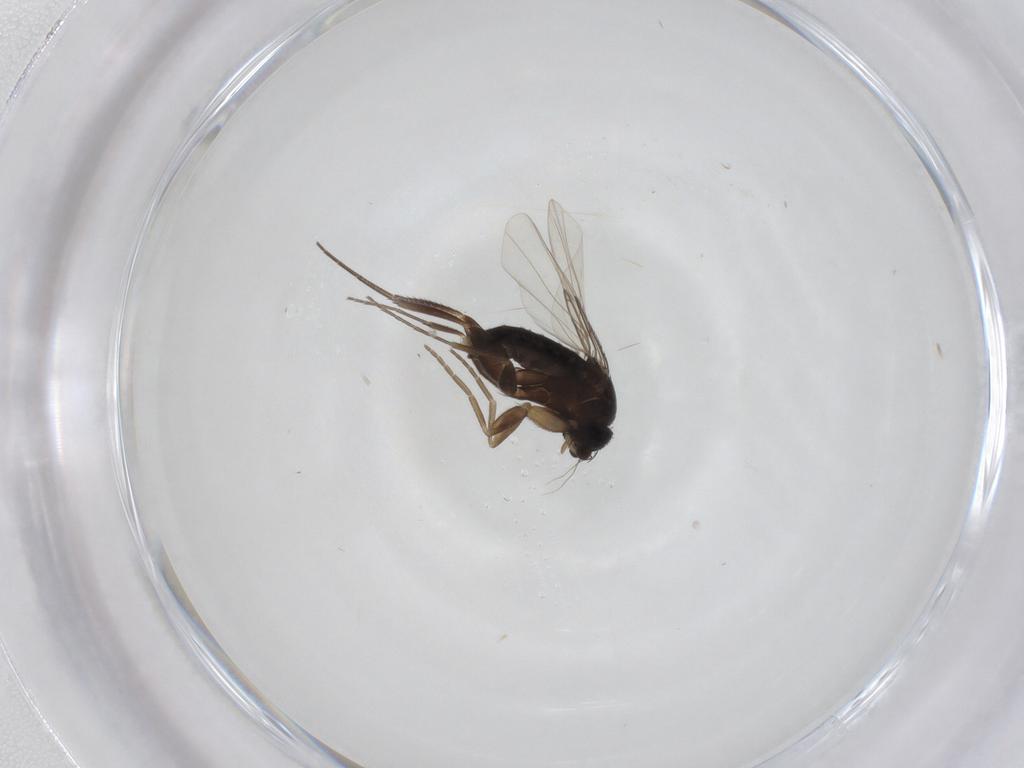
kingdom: Animalia
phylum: Arthropoda
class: Insecta
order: Diptera
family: Phoridae
